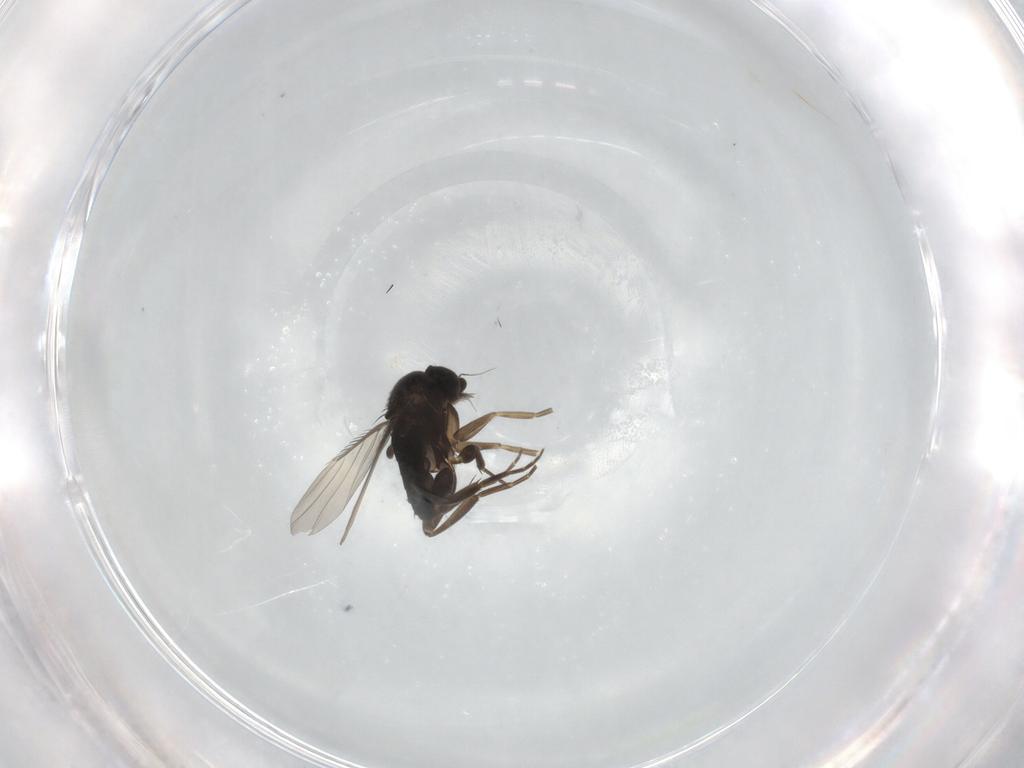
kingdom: Animalia
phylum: Arthropoda
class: Insecta
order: Diptera
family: Phoridae
